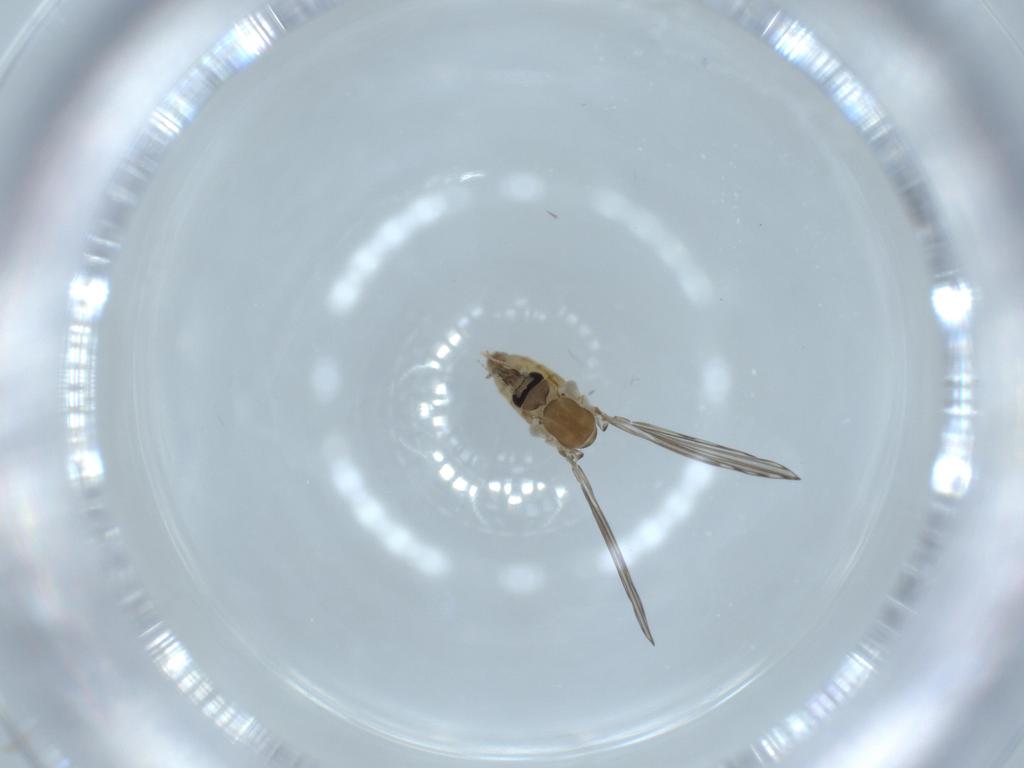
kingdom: Animalia
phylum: Arthropoda
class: Insecta
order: Diptera
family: Psychodidae
